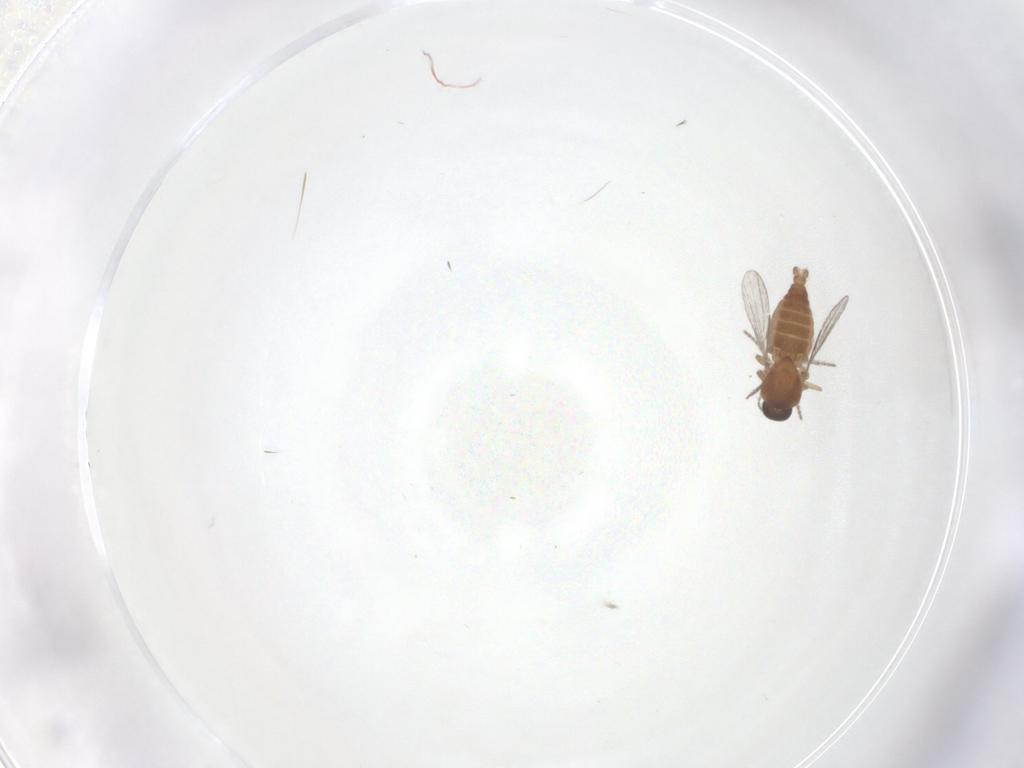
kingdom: Animalia
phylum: Arthropoda
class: Insecta
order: Diptera
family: Ceratopogonidae
